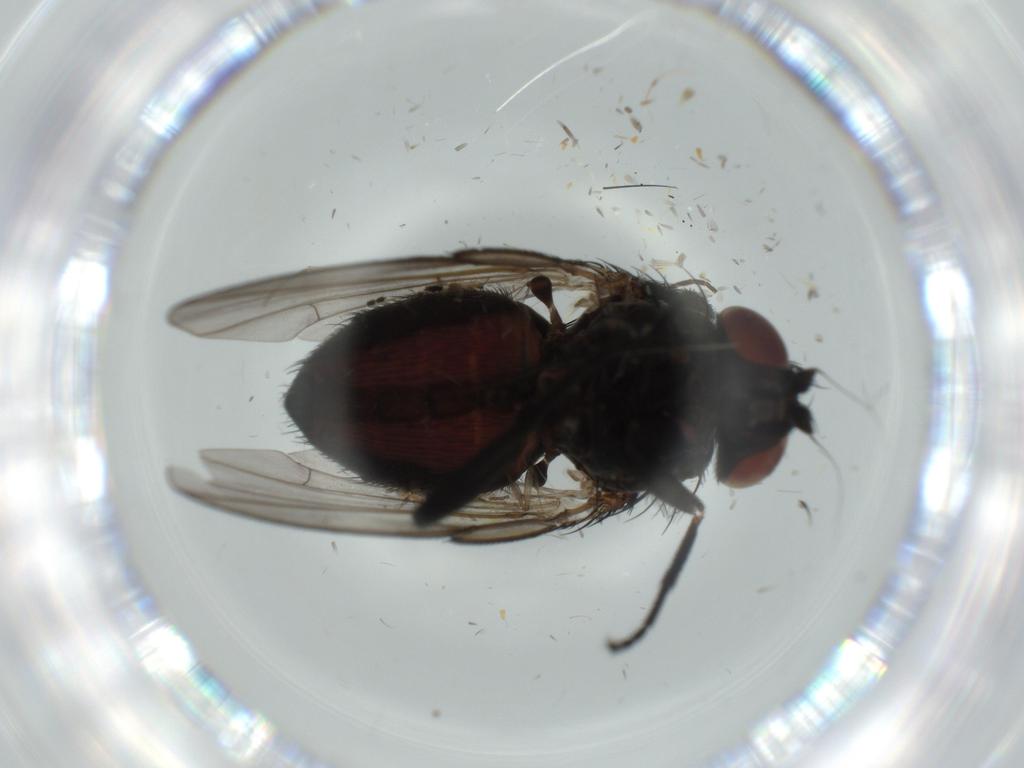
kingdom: Animalia
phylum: Arthropoda
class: Insecta
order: Diptera
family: Milichiidae
